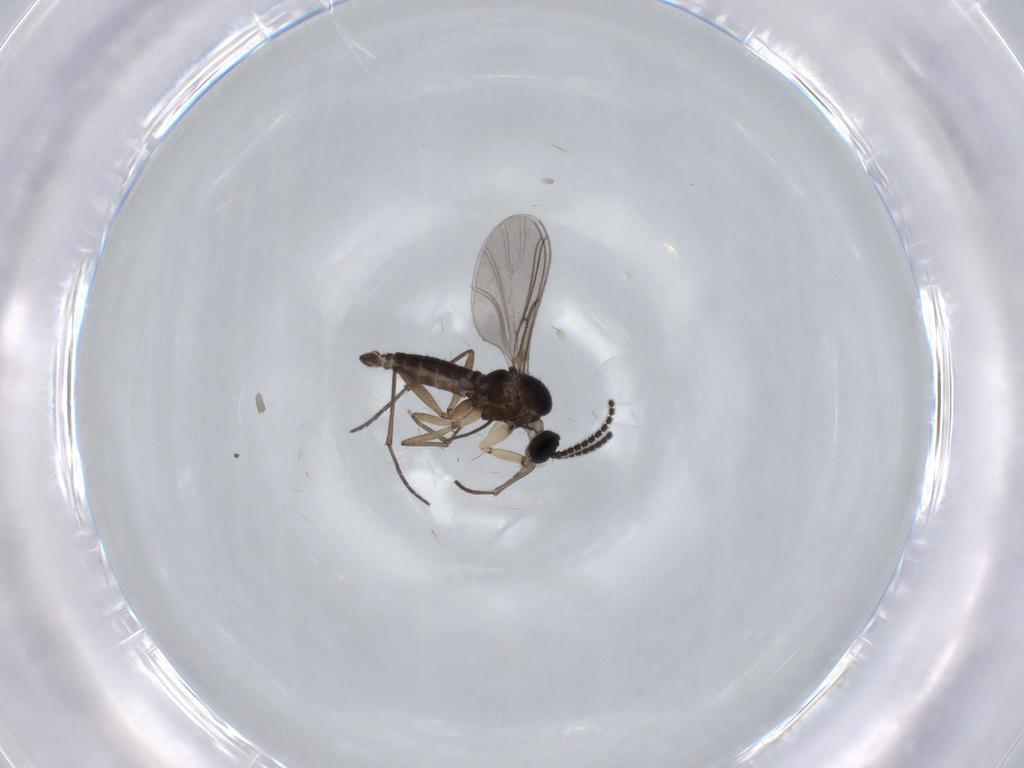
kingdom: Animalia
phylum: Arthropoda
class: Insecta
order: Diptera
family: Sciaridae
